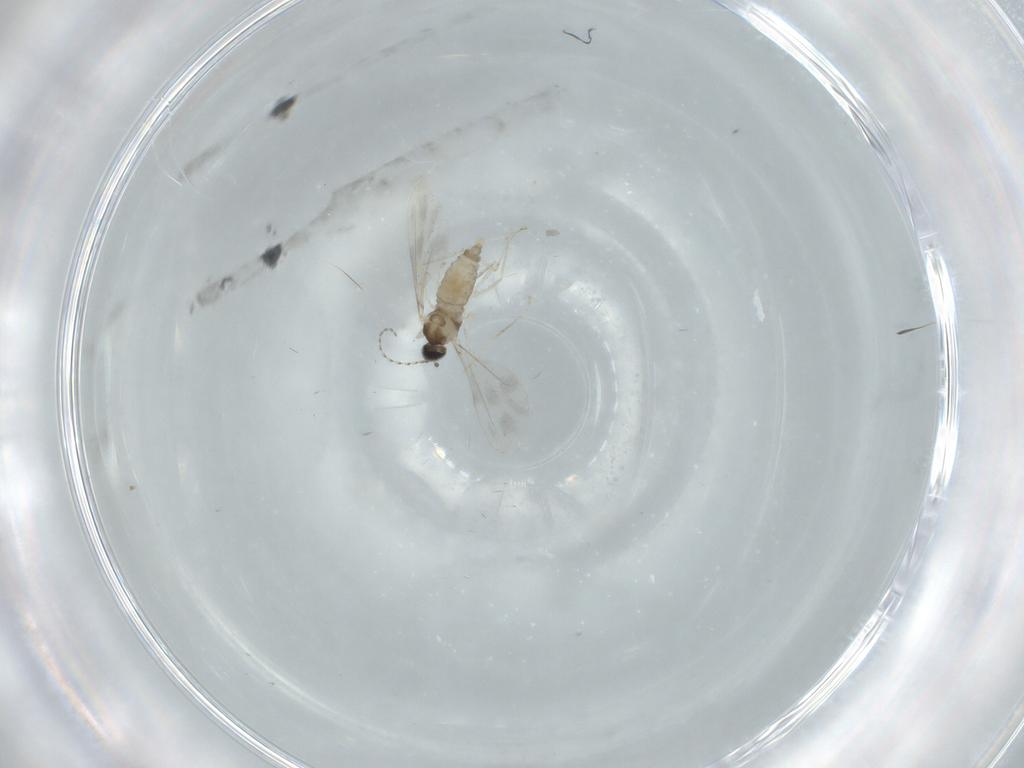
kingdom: Animalia
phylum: Arthropoda
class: Insecta
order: Diptera
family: Cecidomyiidae
